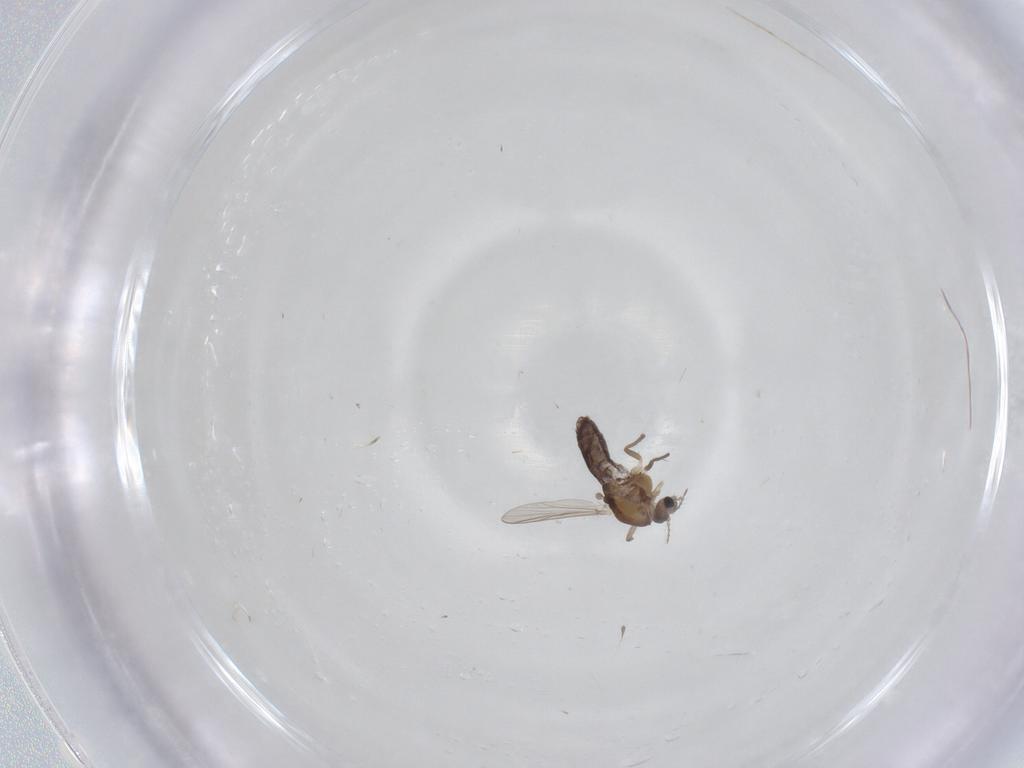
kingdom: Animalia
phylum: Arthropoda
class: Insecta
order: Diptera
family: Chironomidae
